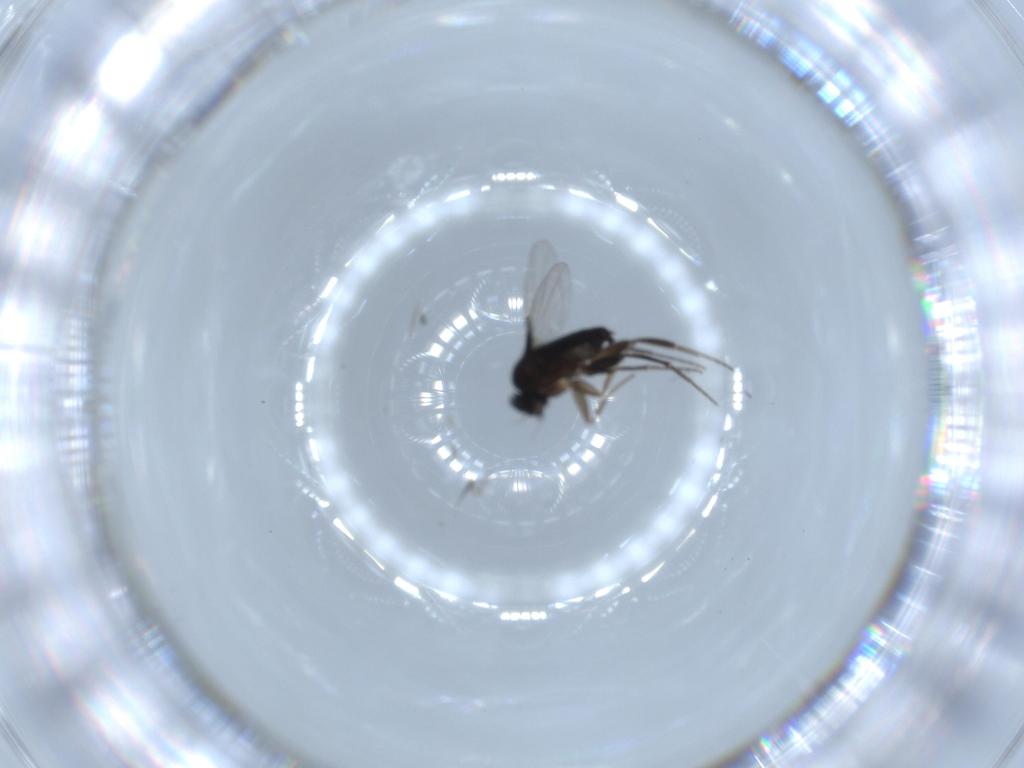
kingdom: Animalia
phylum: Arthropoda
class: Insecta
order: Diptera
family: Phoridae
